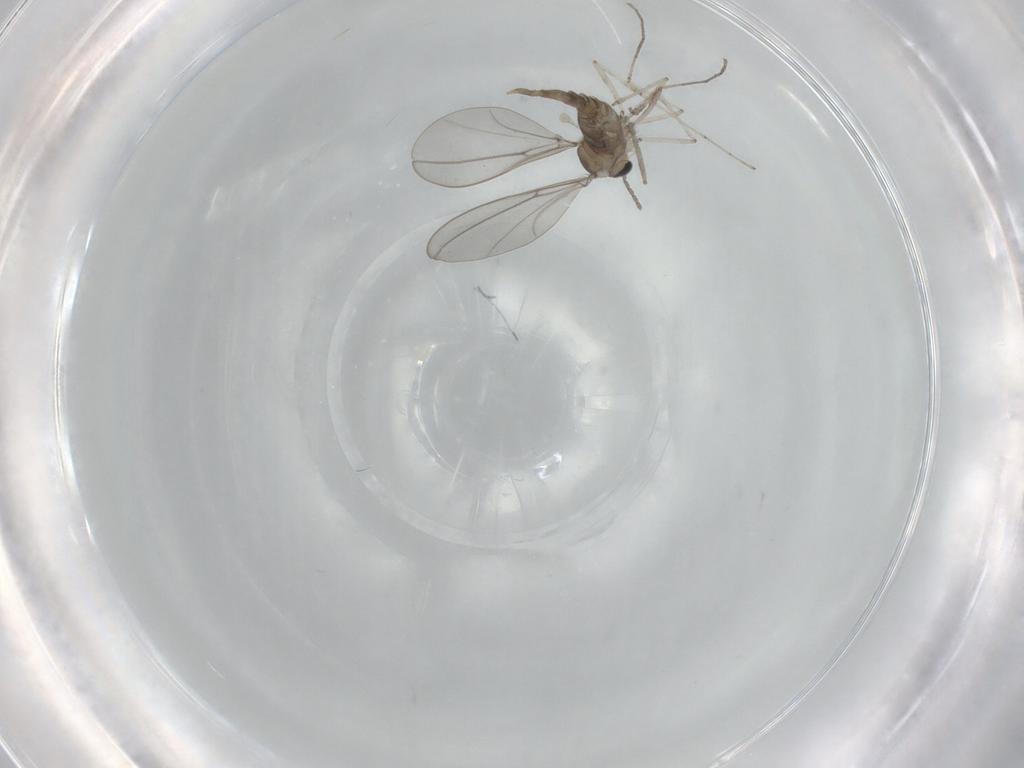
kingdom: Animalia
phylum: Arthropoda
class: Insecta
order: Diptera
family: Cecidomyiidae
